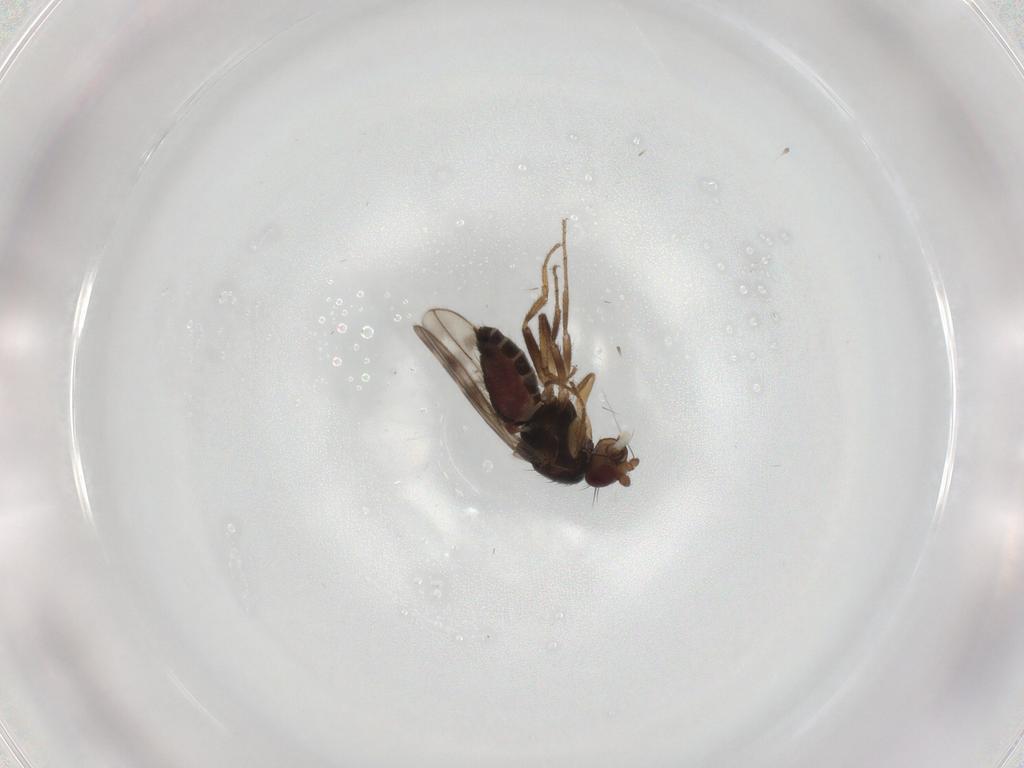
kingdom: Animalia
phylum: Arthropoda
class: Insecta
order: Diptera
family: Sphaeroceridae
